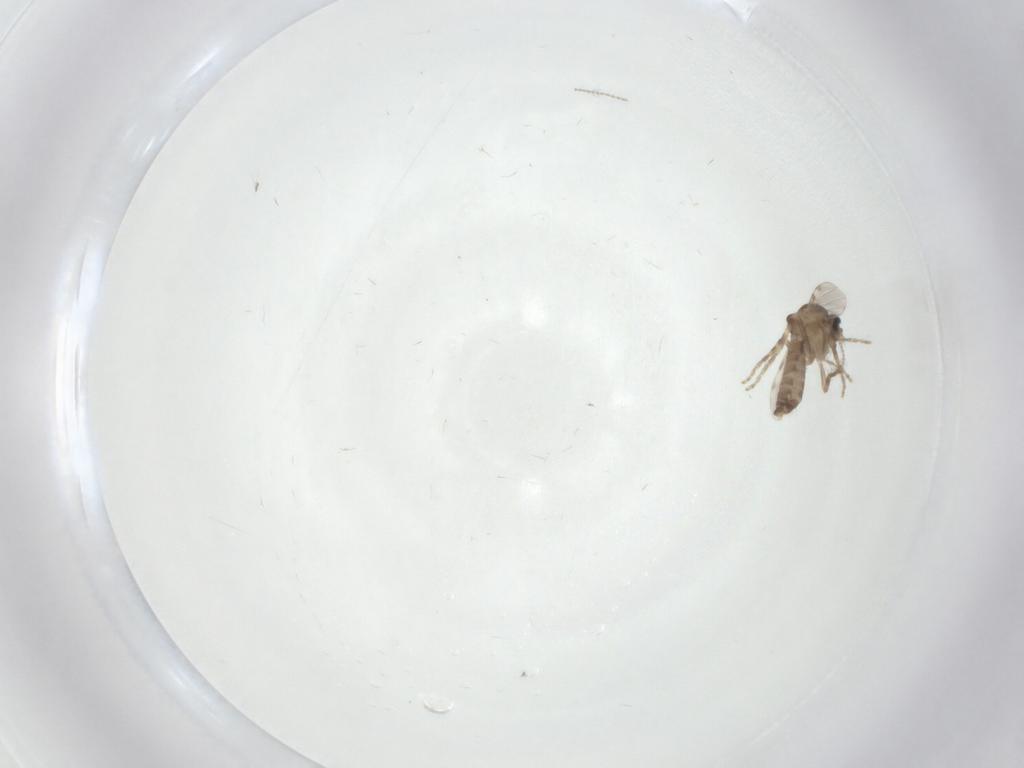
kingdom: Animalia
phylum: Arthropoda
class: Insecta
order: Diptera
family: Ceratopogonidae
